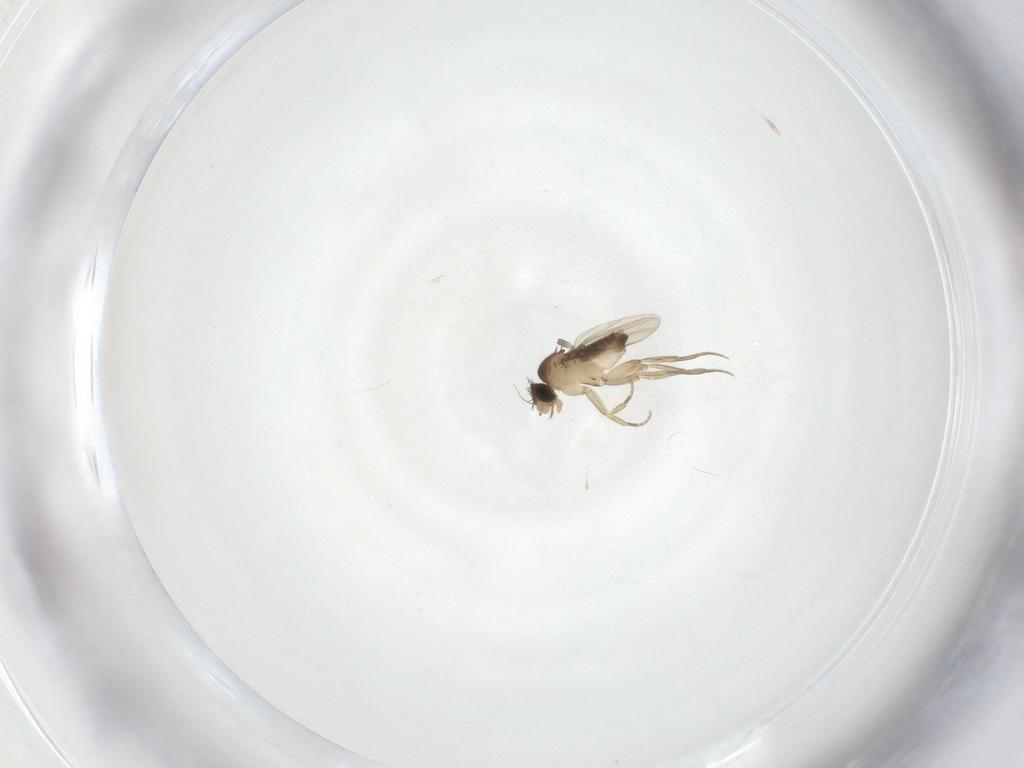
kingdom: Animalia
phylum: Arthropoda
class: Insecta
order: Diptera
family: Phoridae
